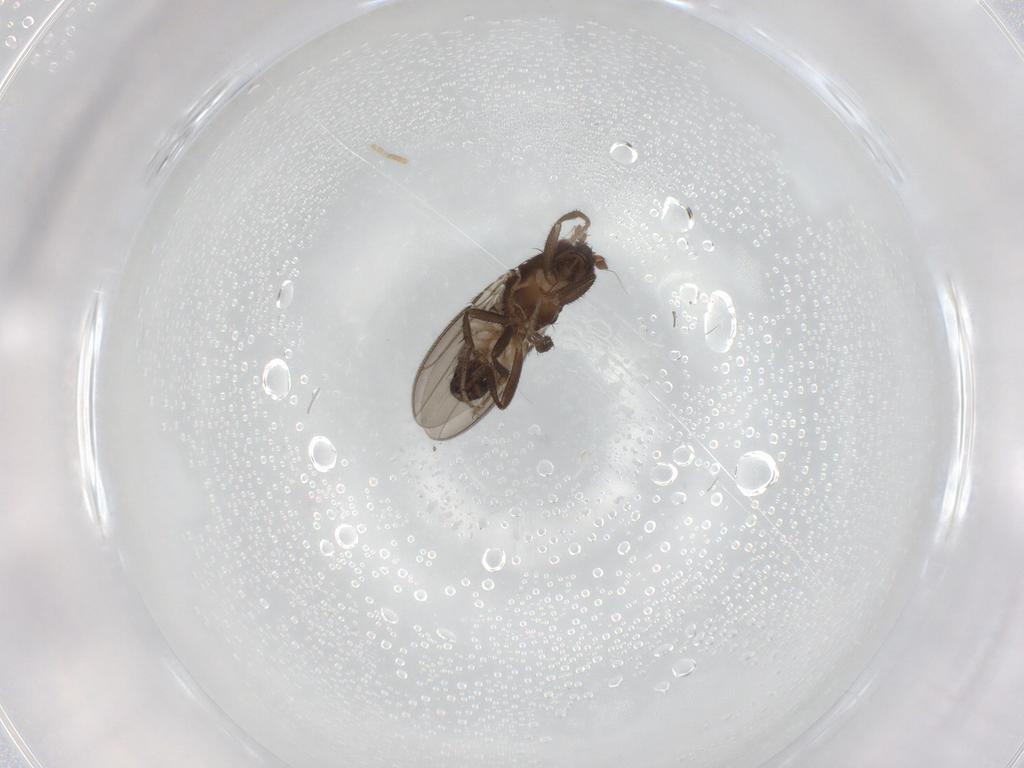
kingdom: Animalia
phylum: Arthropoda
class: Insecta
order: Diptera
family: Sphaeroceridae
